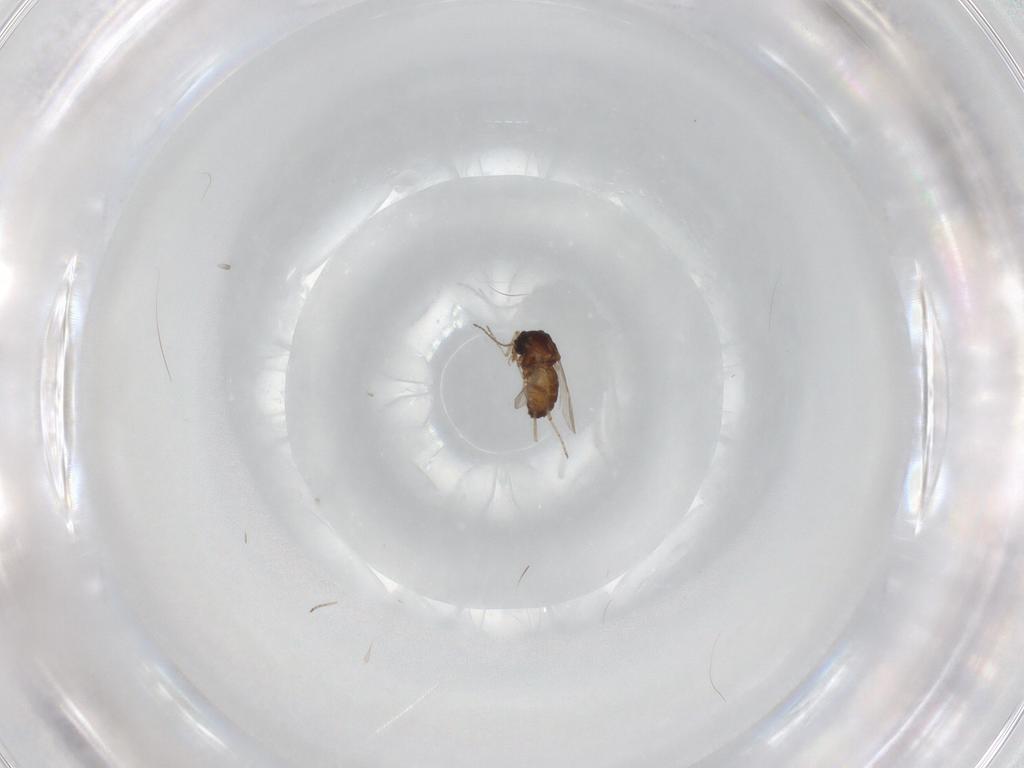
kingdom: Animalia
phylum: Arthropoda
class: Insecta
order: Diptera
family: Ceratopogonidae
